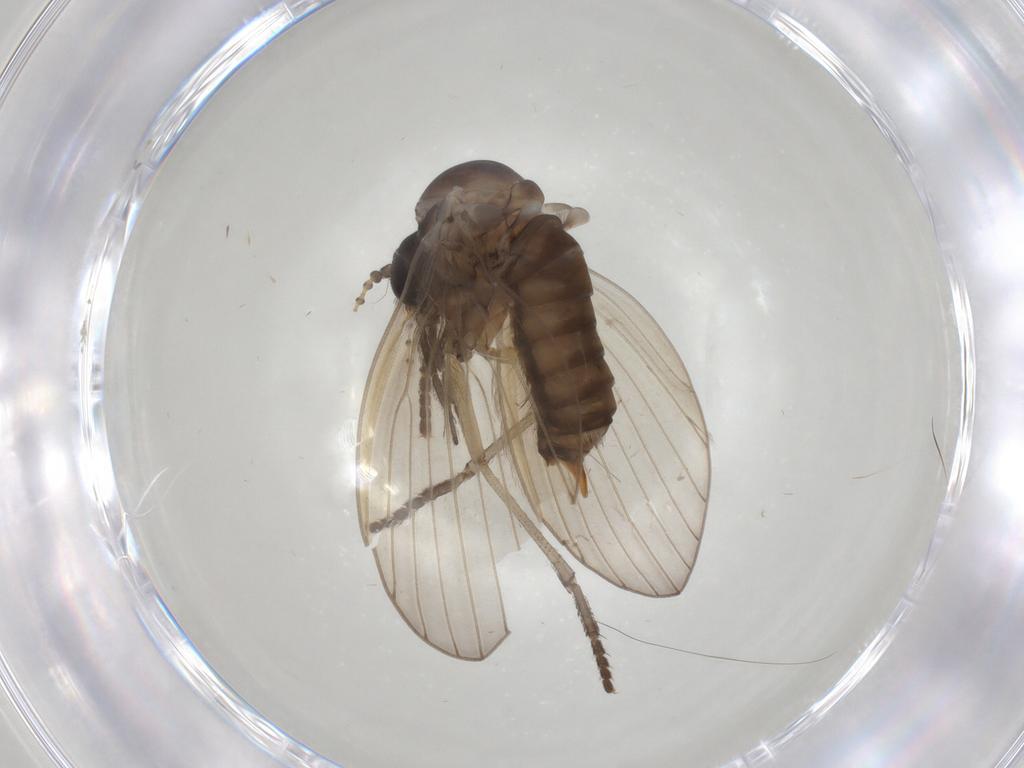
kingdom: Animalia
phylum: Arthropoda
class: Insecta
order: Diptera
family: Psychodidae
